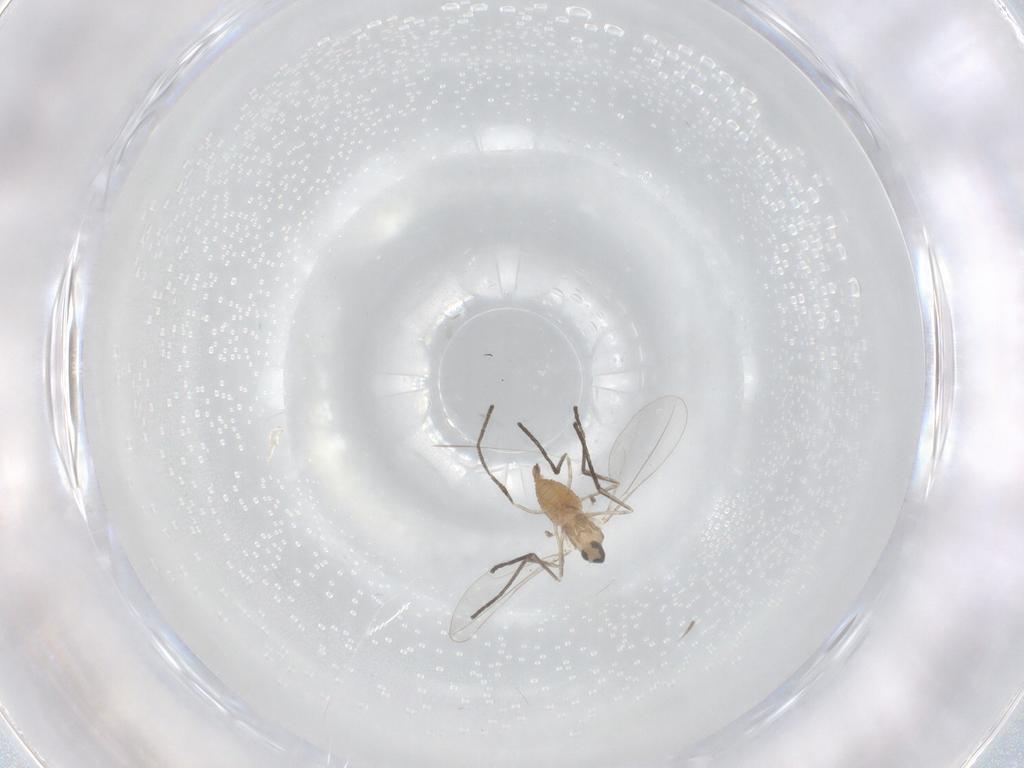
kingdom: Animalia
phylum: Arthropoda
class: Insecta
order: Diptera
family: Cecidomyiidae
